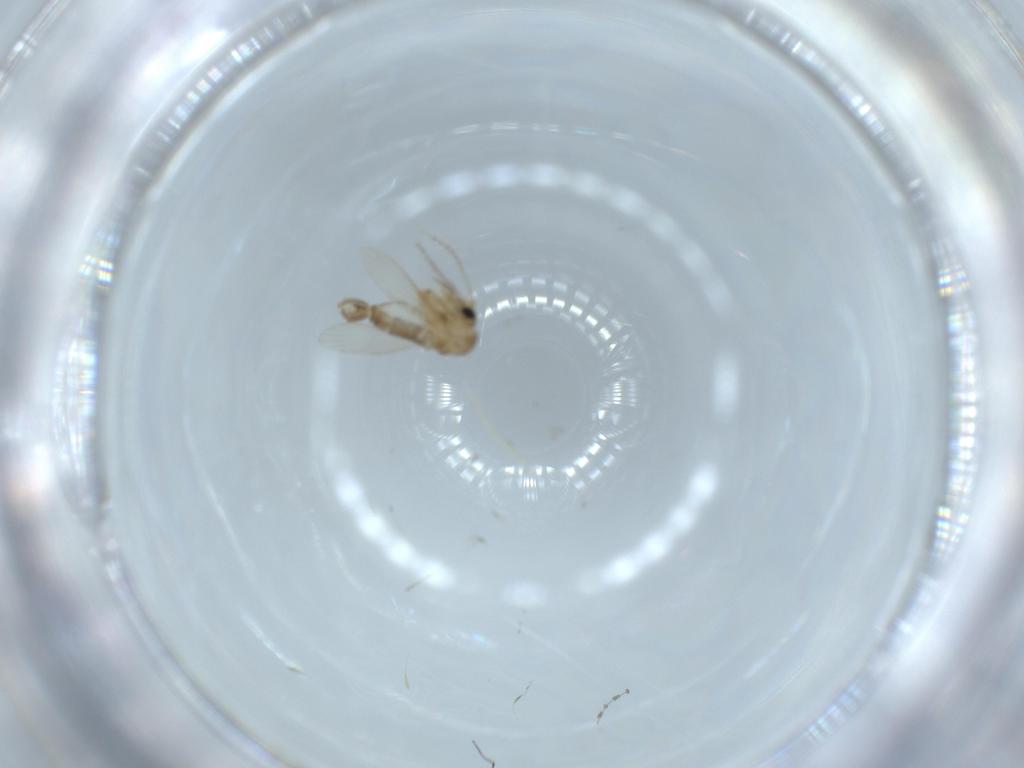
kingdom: Animalia
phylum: Arthropoda
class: Insecta
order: Diptera
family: Psychodidae
